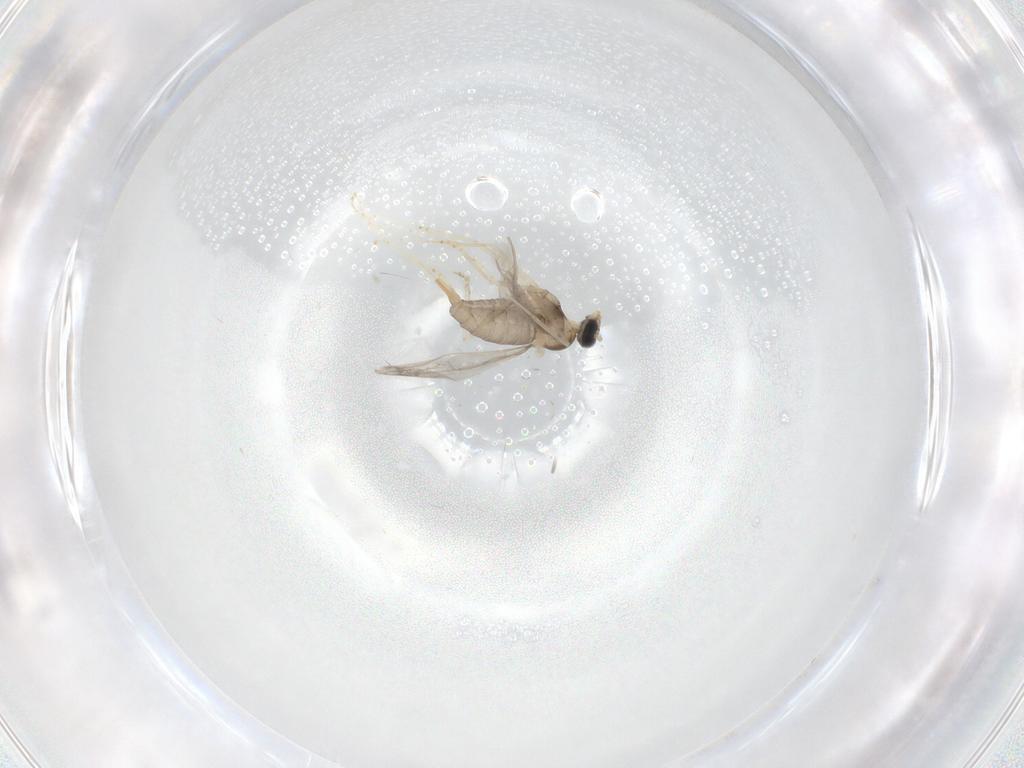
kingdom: Animalia
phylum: Arthropoda
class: Insecta
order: Diptera
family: Cecidomyiidae
